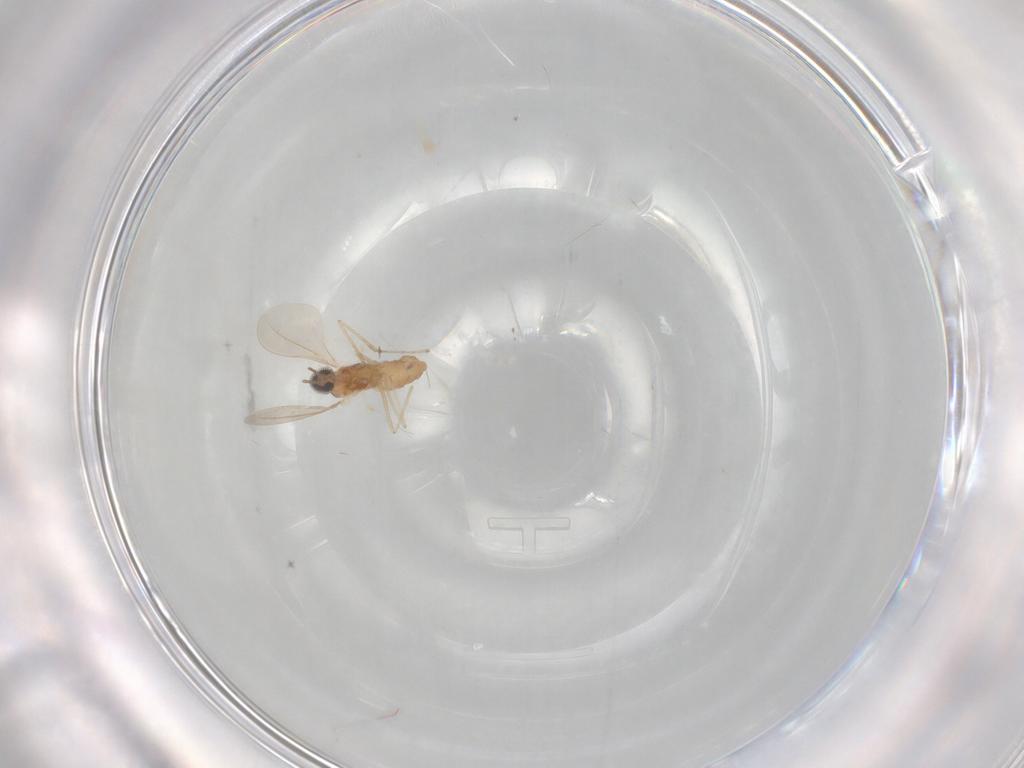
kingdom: Animalia
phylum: Arthropoda
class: Insecta
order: Diptera
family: Cecidomyiidae
